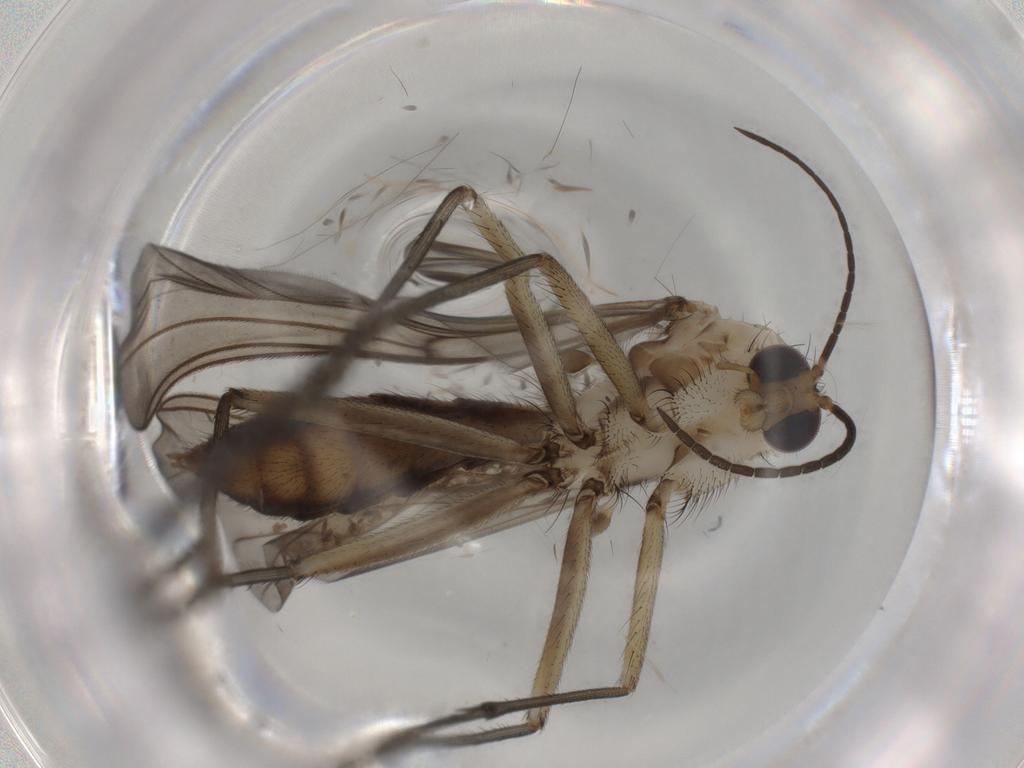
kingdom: Animalia
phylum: Arthropoda
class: Insecta
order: Diptera
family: Mycetophilidae
